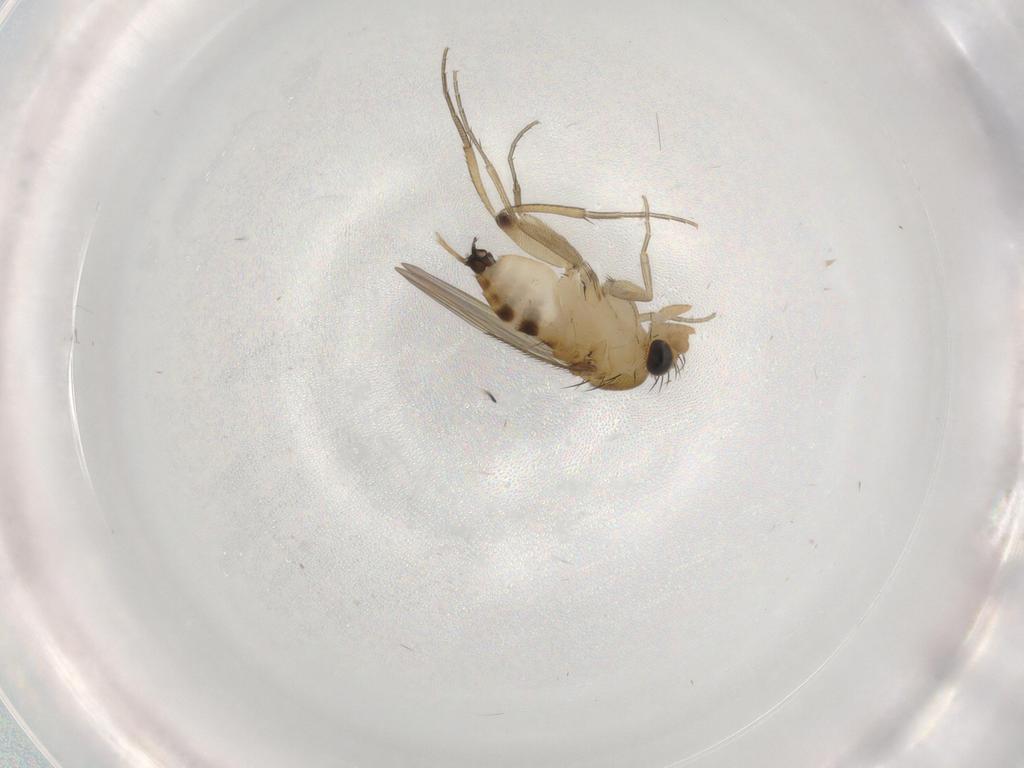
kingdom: Animalia
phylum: Arthropoda
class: Insecta
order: Diptera
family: Phoridae
